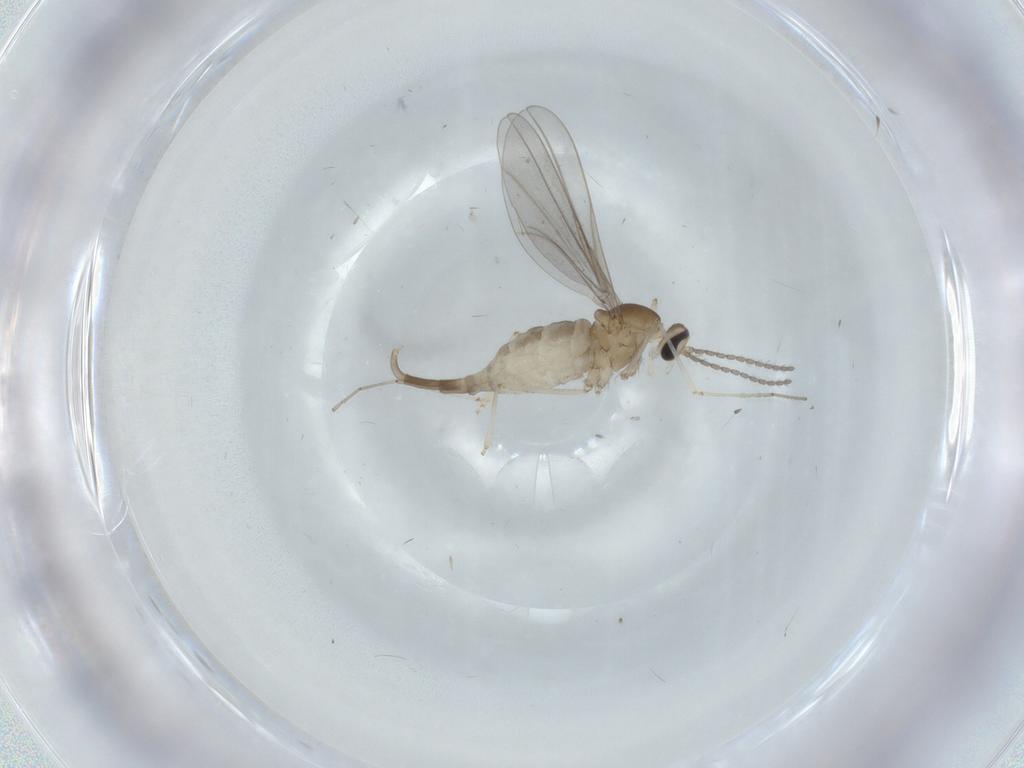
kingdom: Animalia
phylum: Arthropoda
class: Insecta
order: Diptera
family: Cecidomyiidae
